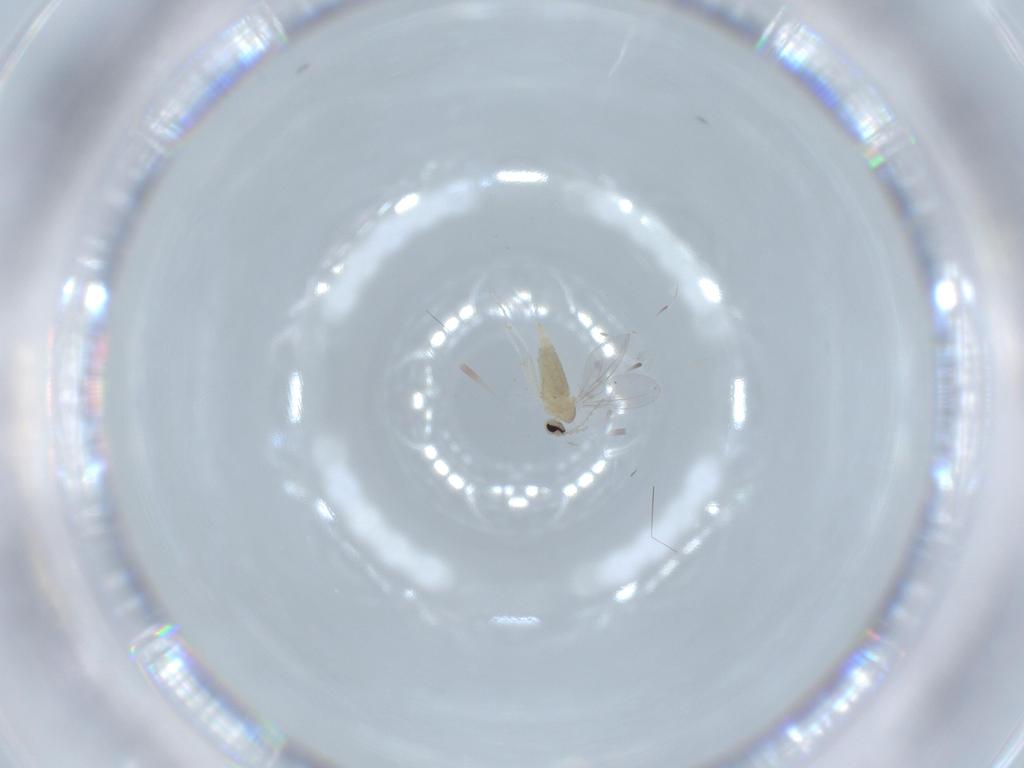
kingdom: Animalia
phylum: Arthropoda
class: Insecta
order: Diptera
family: Cecidomyiidae
